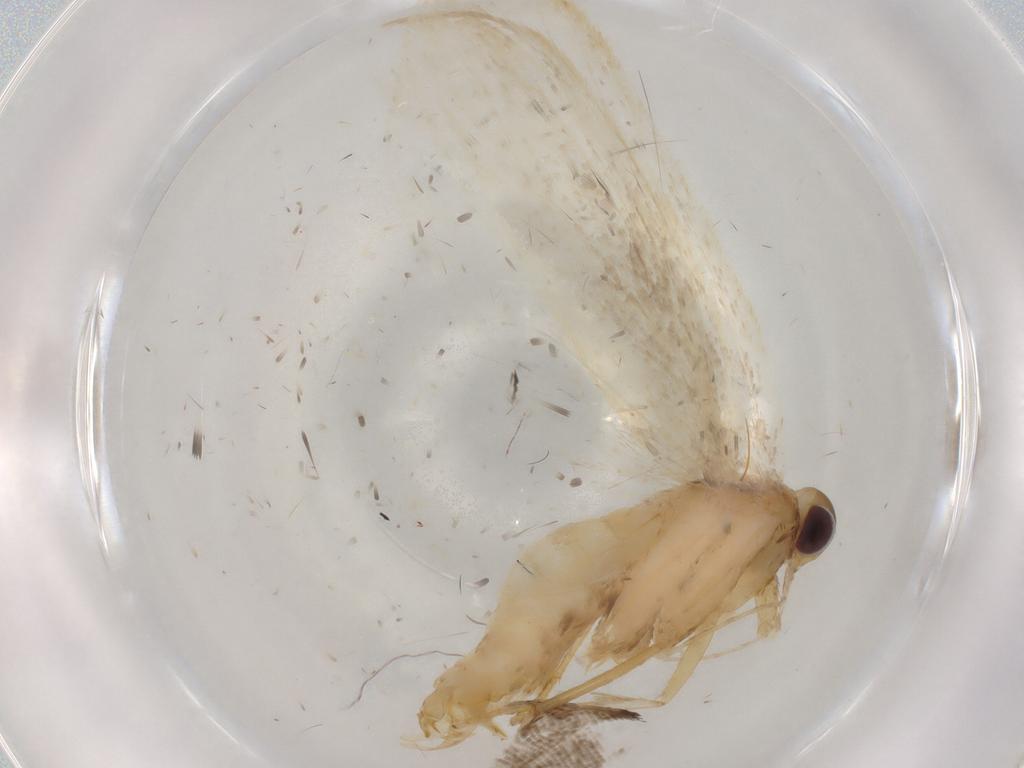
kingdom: Animalia
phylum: Arthropoda
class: Insecta
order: Lepidoptera
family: Lecithoceridae
